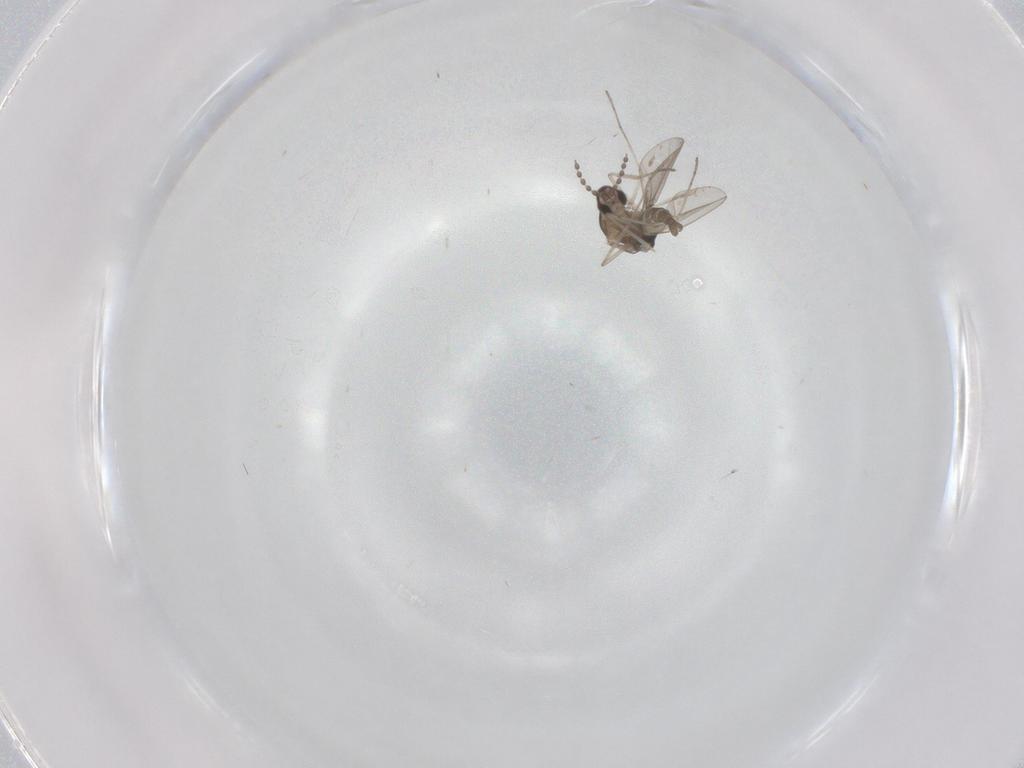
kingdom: Animalia
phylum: Arthropoda
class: Insecta
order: Diptera
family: Cecidomyiidae
